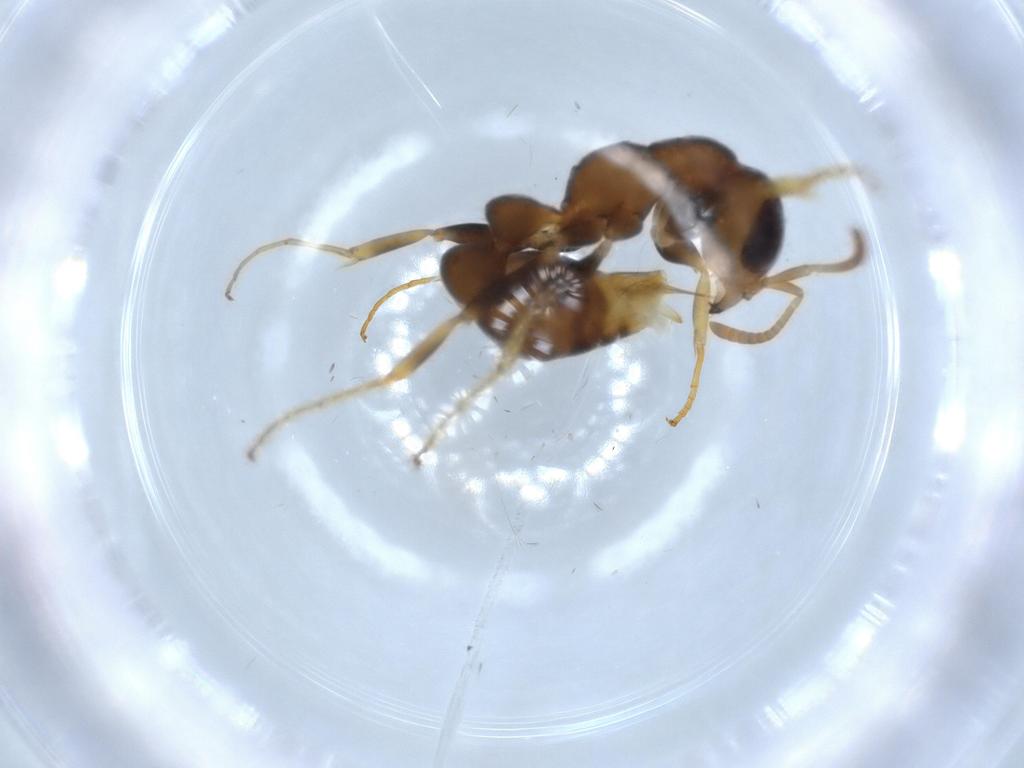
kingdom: Animalia
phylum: Arthropoda
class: Insecta
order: Hymenoptera
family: Formicidae
